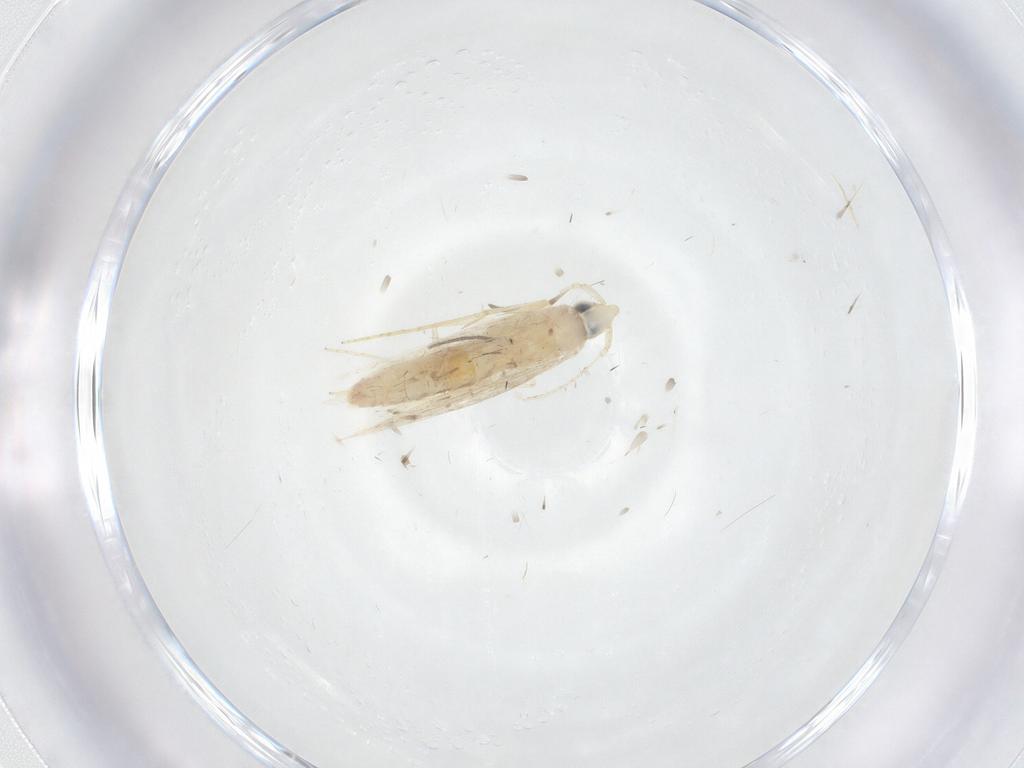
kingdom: Animalia
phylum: Arthropoda
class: Insecta
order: Lepidoptera
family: Tineidae
